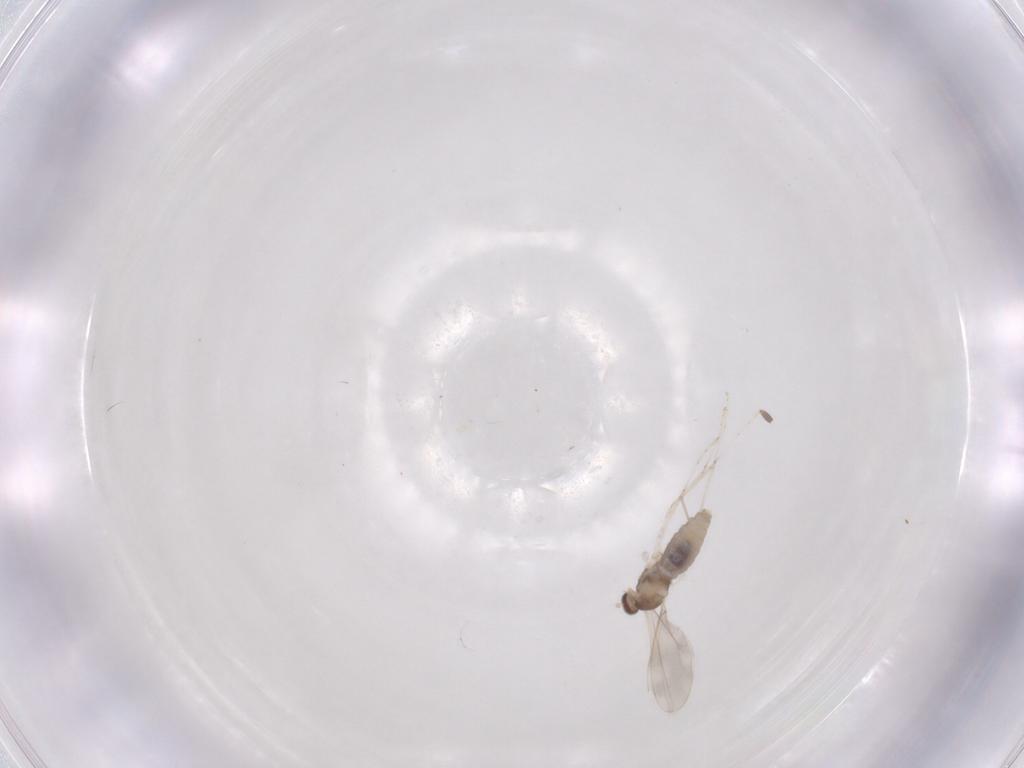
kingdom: Animalia
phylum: Arthropoda
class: Insecta
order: Diptera
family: Cecidomyiidae
